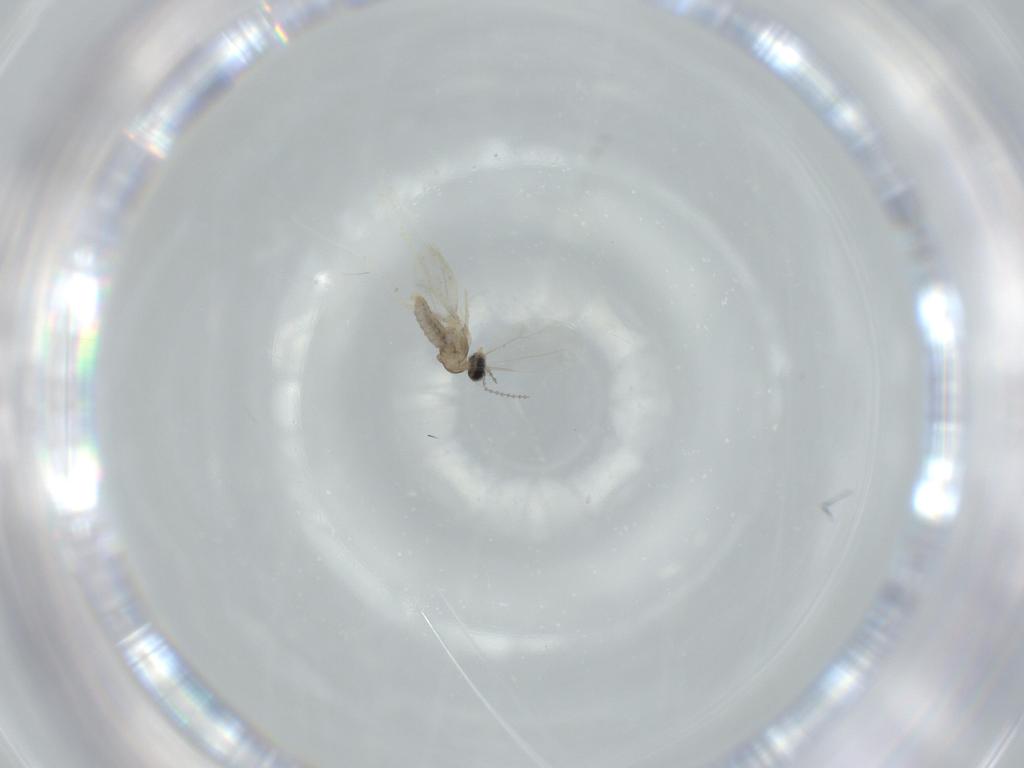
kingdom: Animalia
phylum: Arthropoda
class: Insecta
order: Diptera
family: Cecidomyiidae
